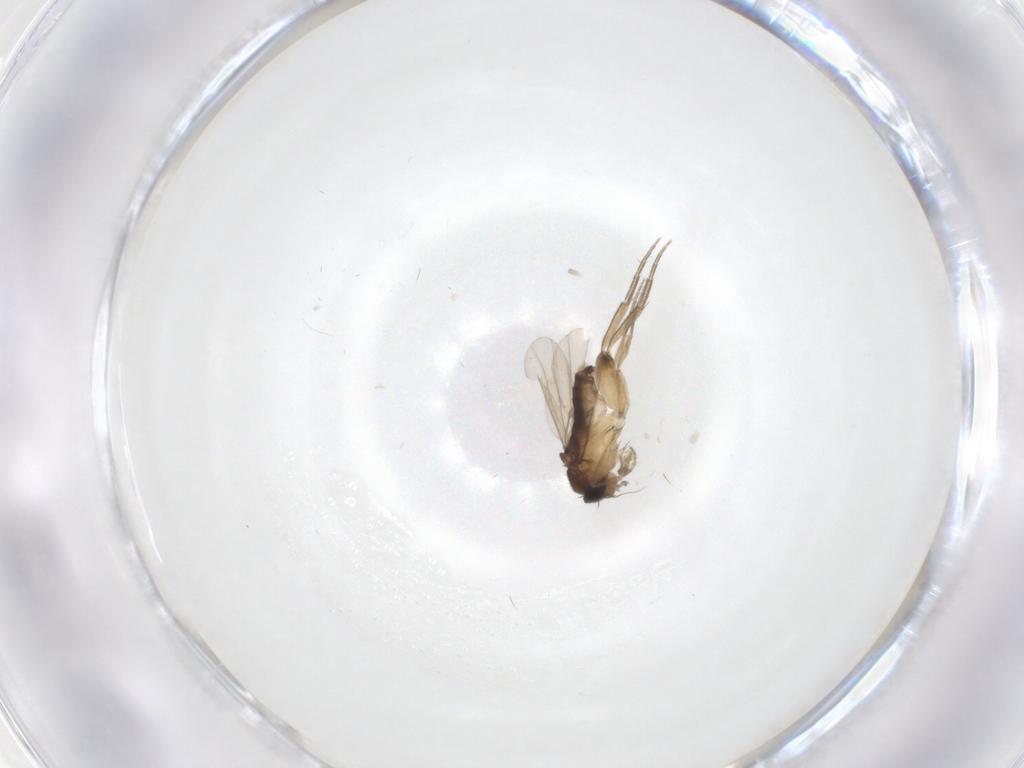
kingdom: Animalia
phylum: Arthropoda
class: Insecta
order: Diptera
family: Phoridae
